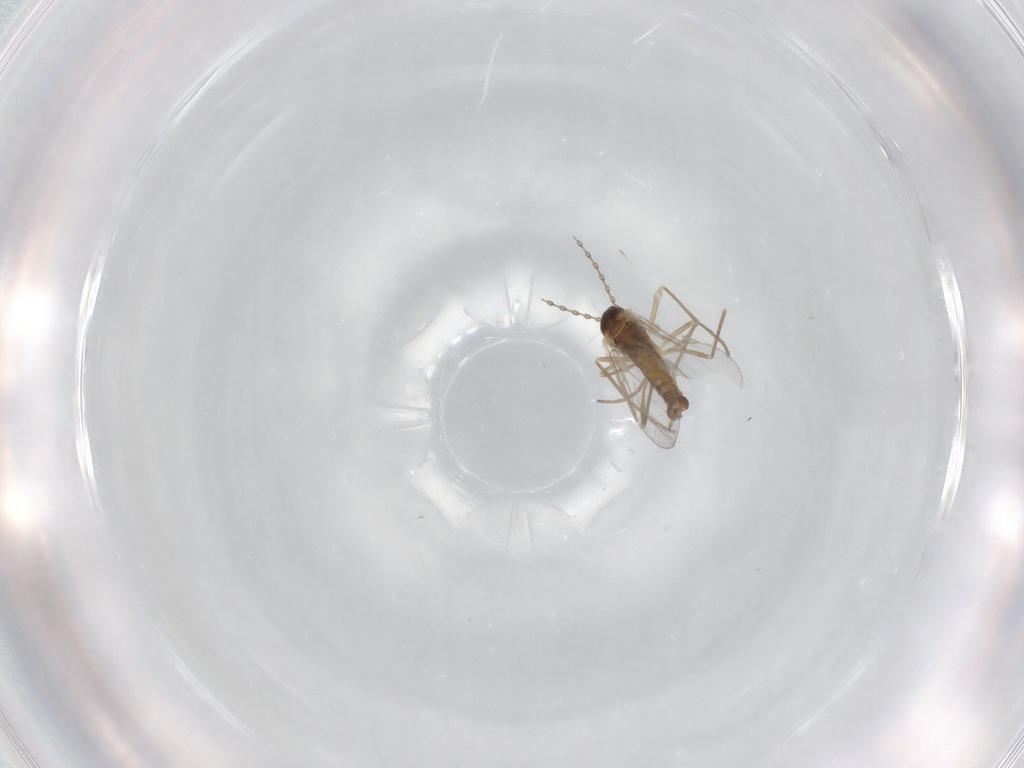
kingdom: Animalia
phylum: Arthropoda
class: Insecta
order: Diptera
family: Cecidomyiidae
